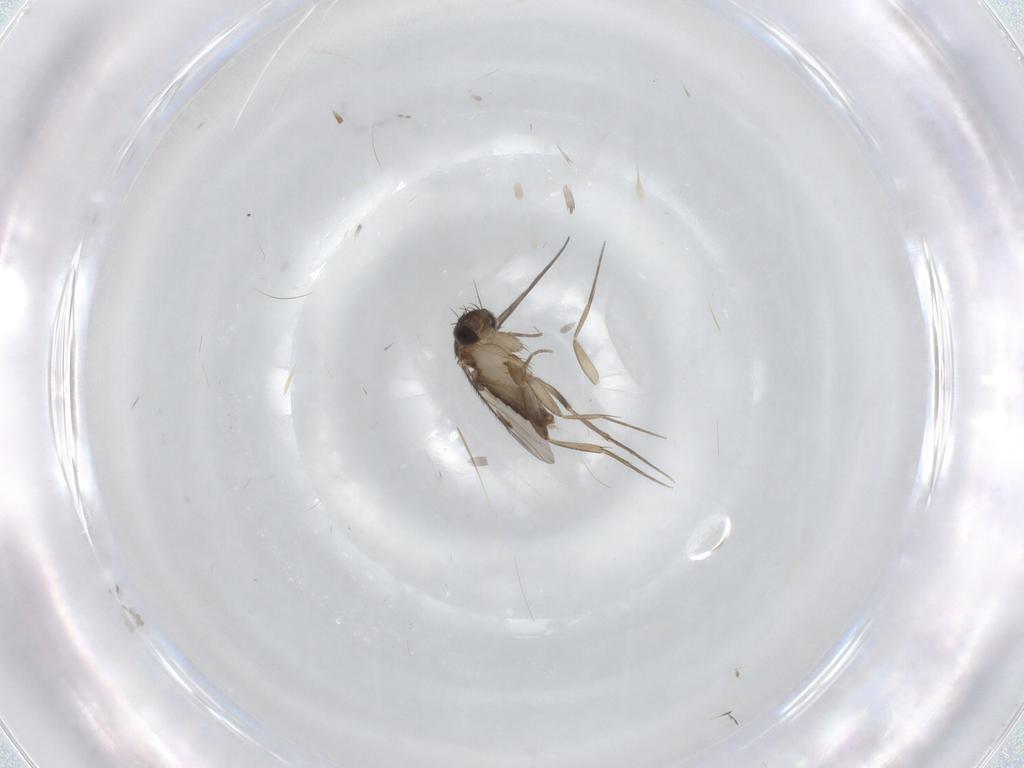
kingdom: Animalia
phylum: Arthropoda
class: Insecta
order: Diptera
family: Phoridae
